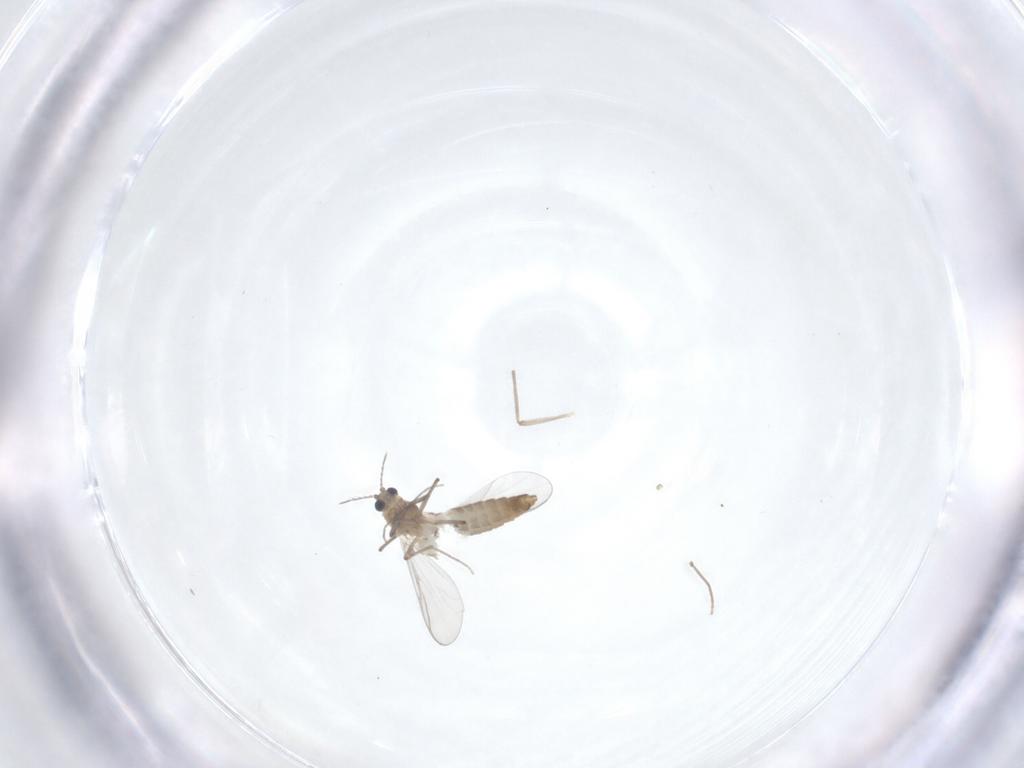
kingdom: Animalia
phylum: Arthropoda
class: Insecta
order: Diptera
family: Chironomidae
